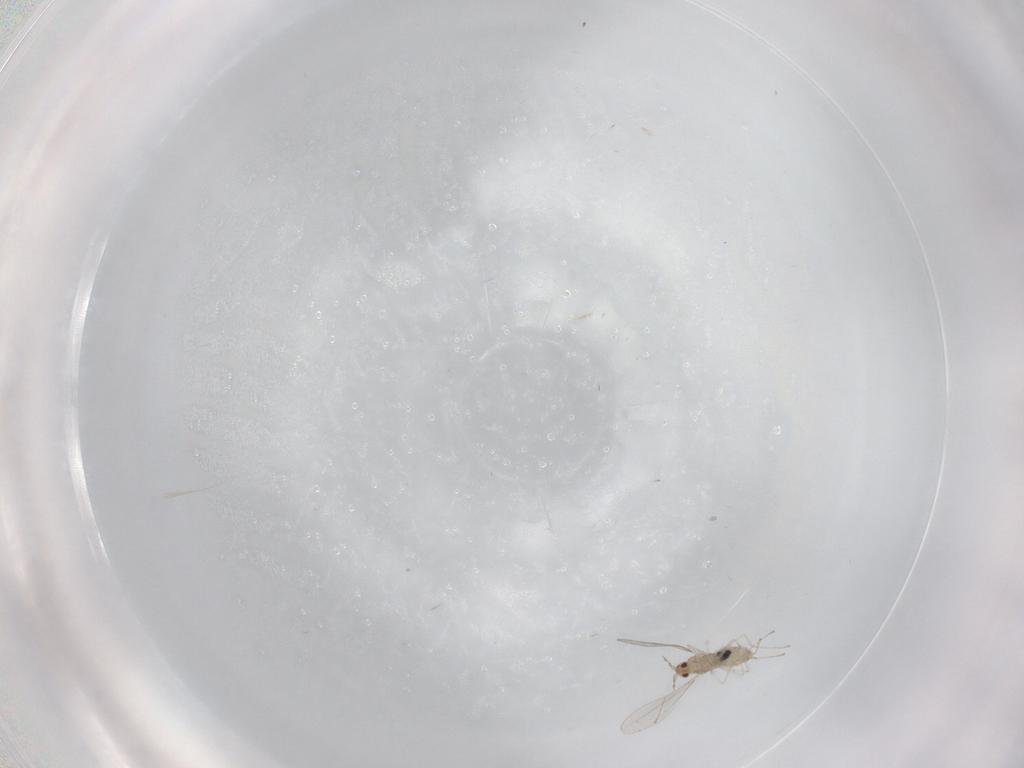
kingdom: Animalia
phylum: Arthropoda
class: Insecta
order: Diptera
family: Cecidomyiidae
